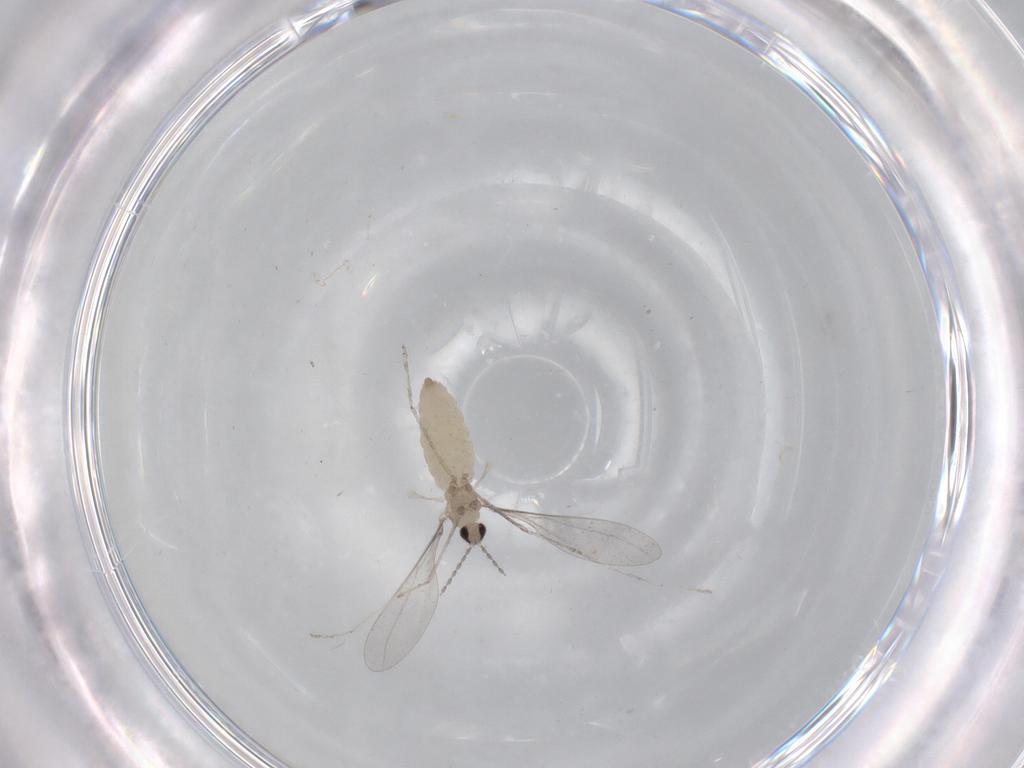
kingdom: Animalia
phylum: Arthropoda
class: Insecta
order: Diptera
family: Cecidomyiidae
